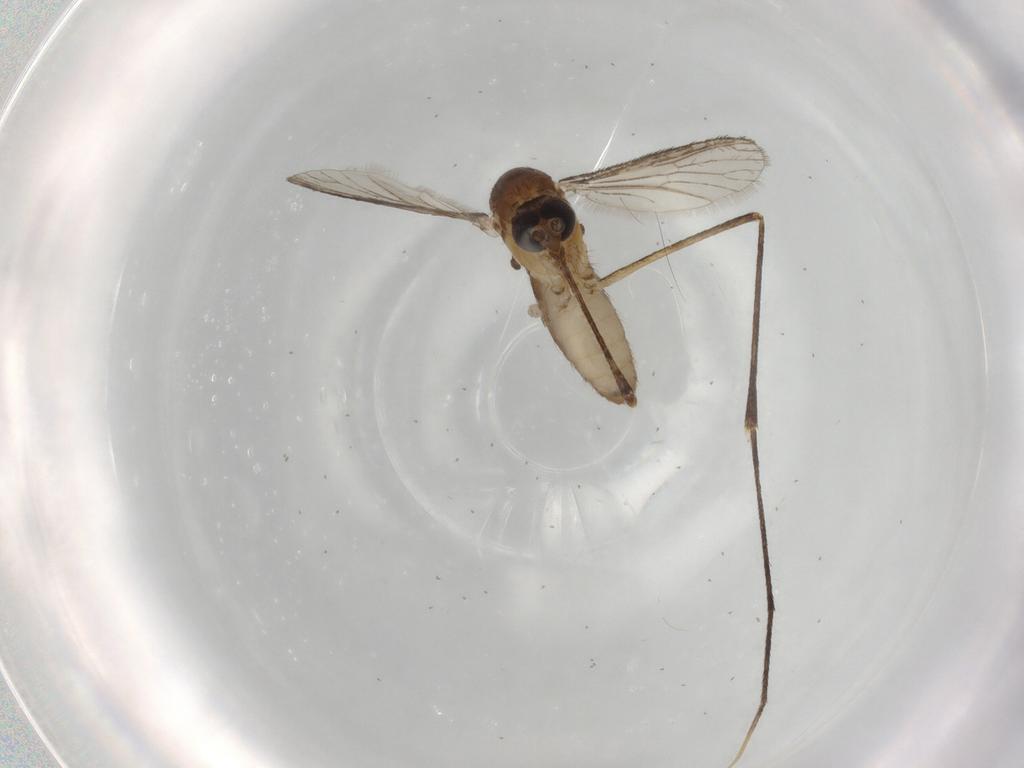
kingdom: Animalia
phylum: Arthropoda
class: Insecta
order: Diptera
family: Cecidomyiidae
